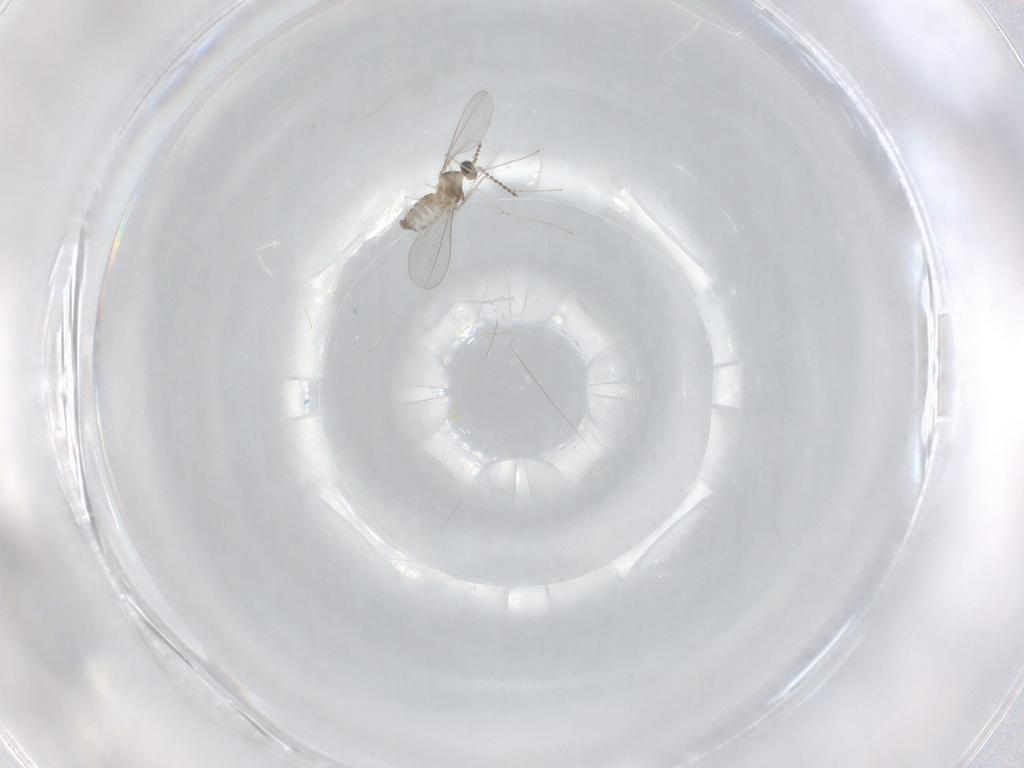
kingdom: Animalia
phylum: Arthropoda
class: Insecta
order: Diptera
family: Cecidomyiidae
